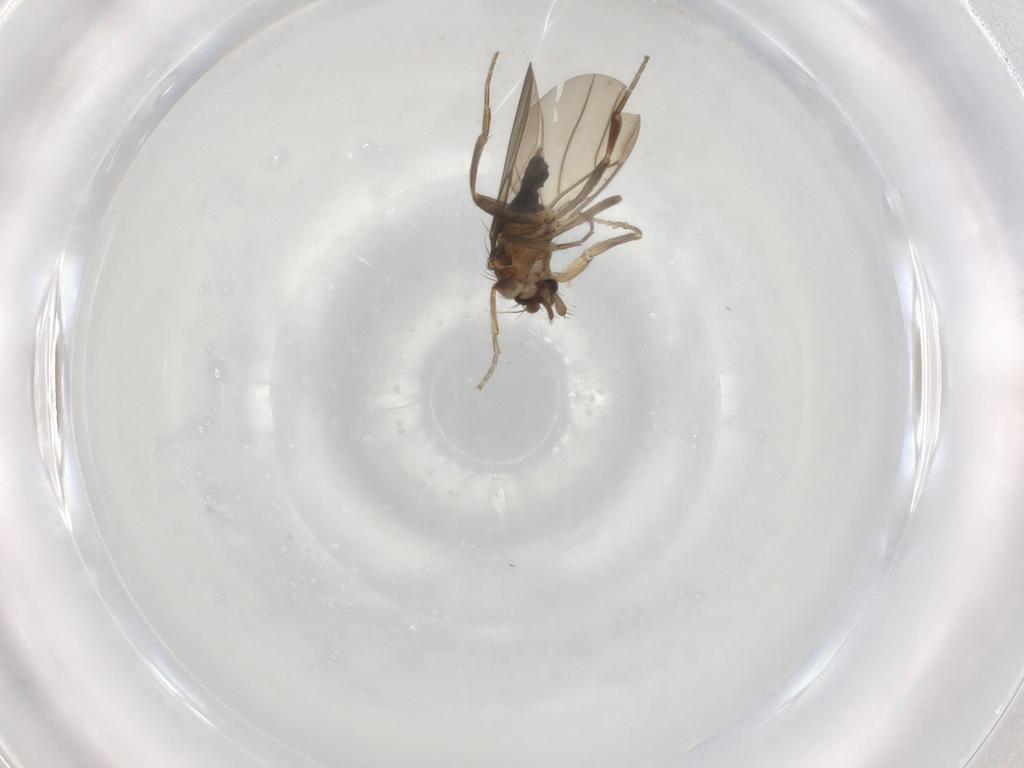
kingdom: Animalia
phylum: Arthropoda
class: Insecta
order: Diptera
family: Phoridae
